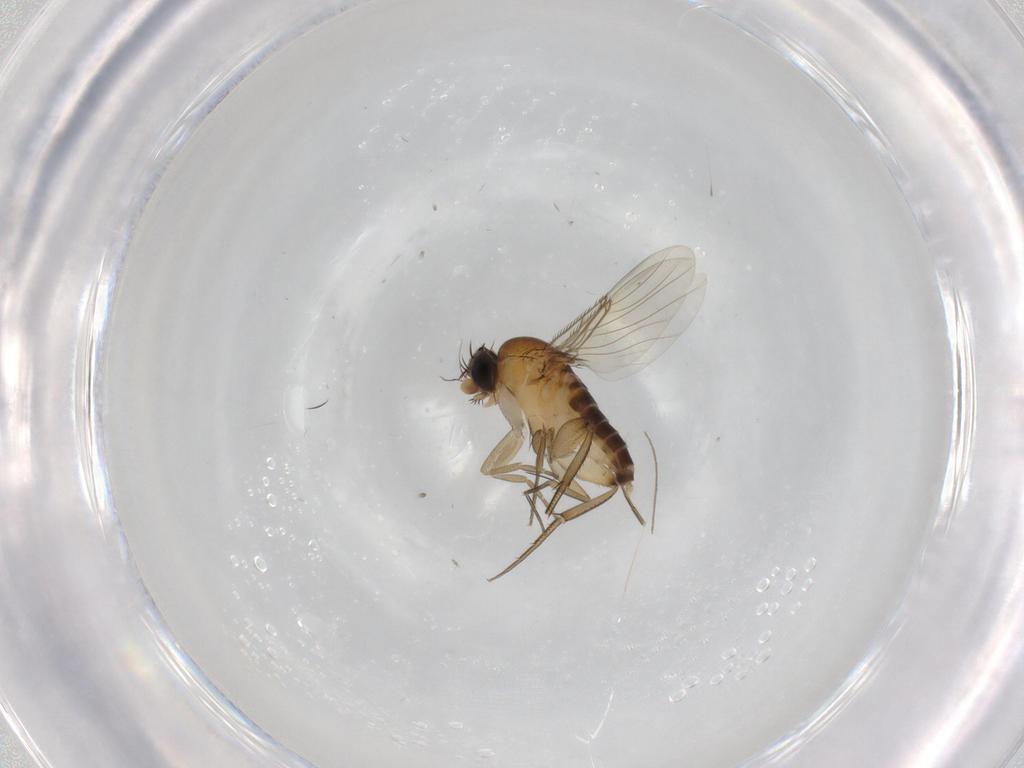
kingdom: Animalia
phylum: Arthropoda
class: Insecta
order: Diptera
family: Phoridae
